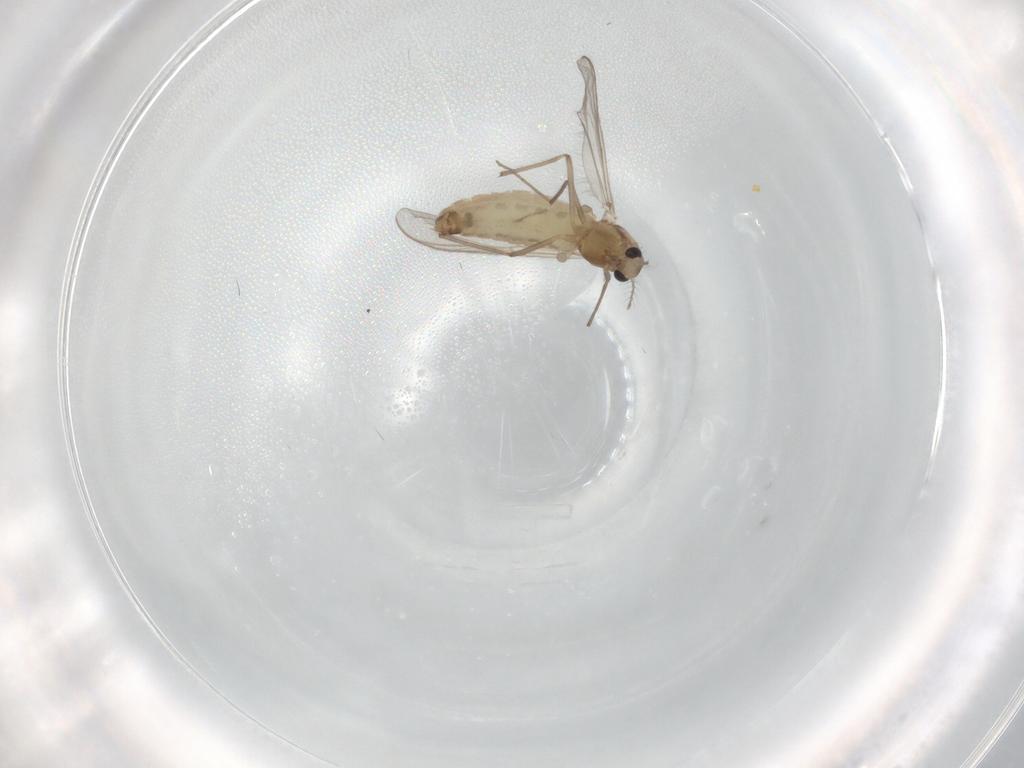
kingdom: Animalia
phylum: Arthropoda
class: Insecta
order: Diptera
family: Chironomidae
